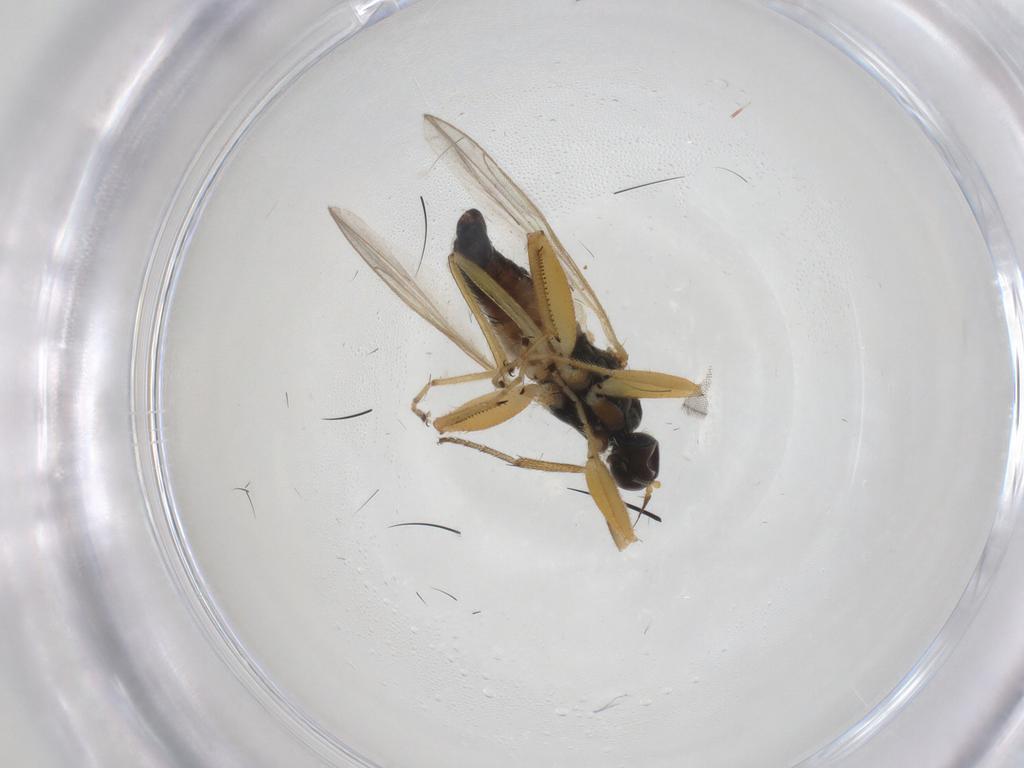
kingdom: Animalia
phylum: Arthropoda
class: Insecta
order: Diptera
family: Hybotidae
